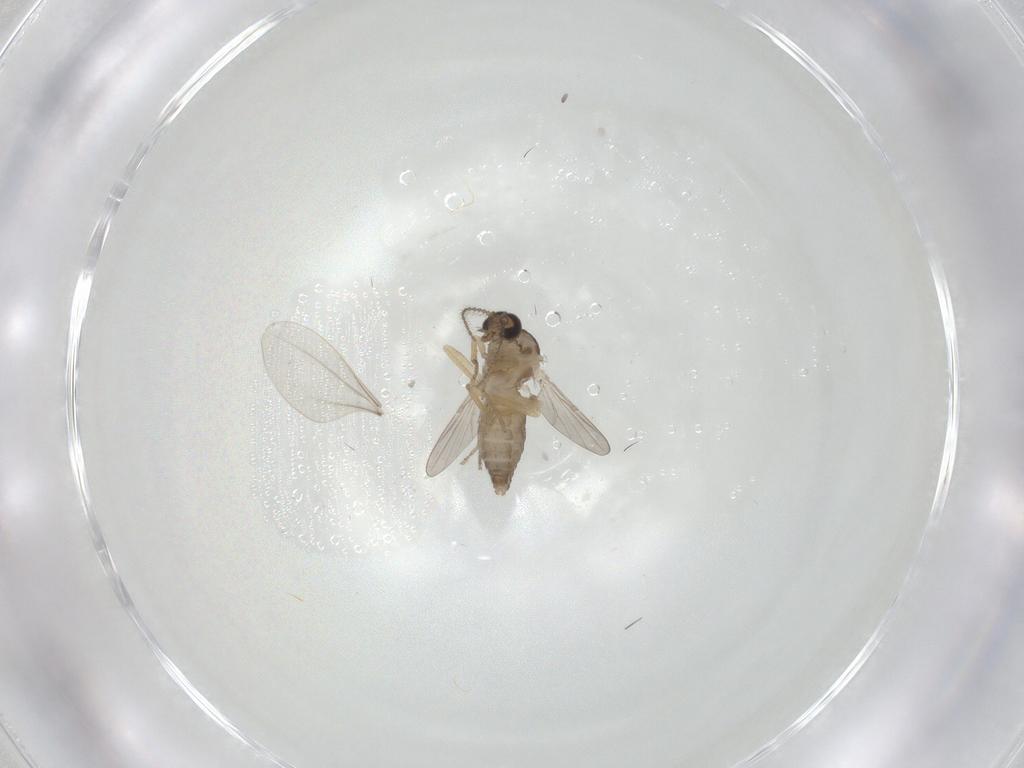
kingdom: Animalia
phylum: Arthropoda
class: Insecta
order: Diptera
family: Ceratopogonidae
